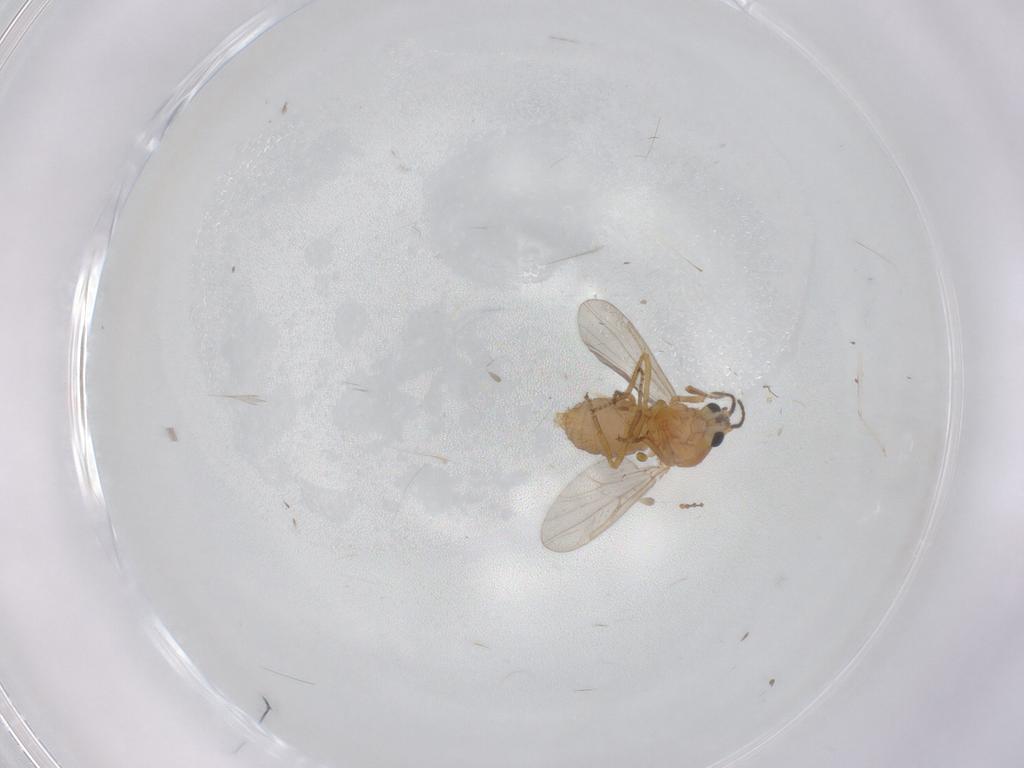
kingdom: Animalia
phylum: Arthropoda
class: Insecta
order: Diptera
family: Ceratopogonidae
